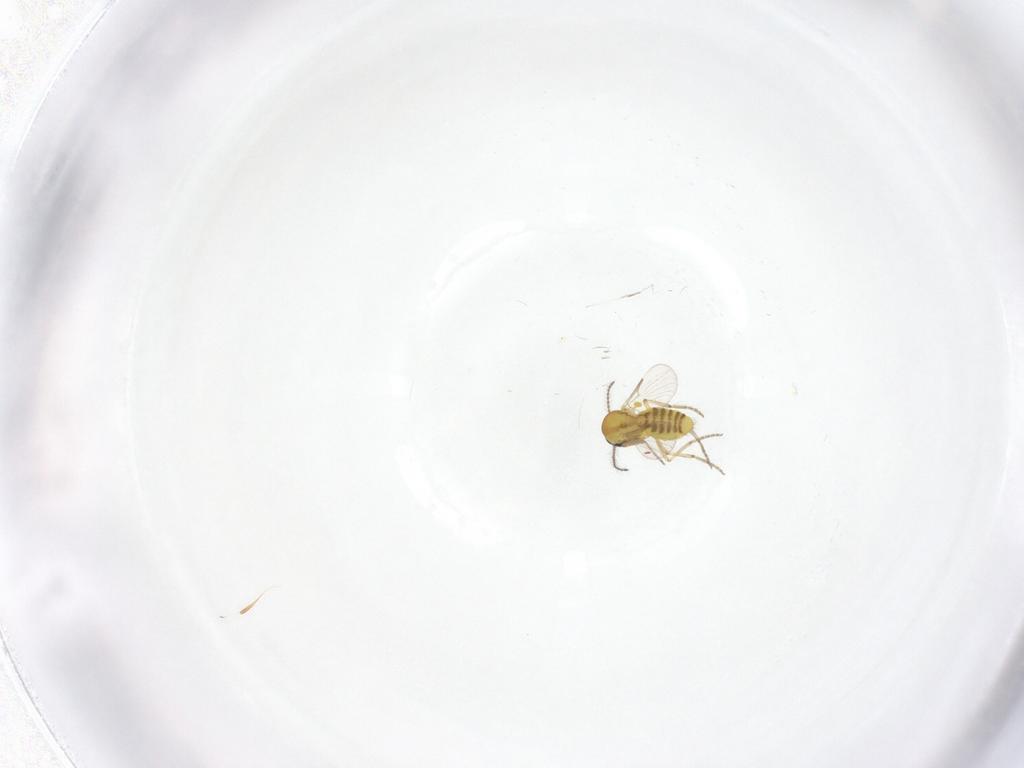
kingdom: Animalia
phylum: Arthropoda
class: Insecta
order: Diptera
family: Ceratopogonidae
